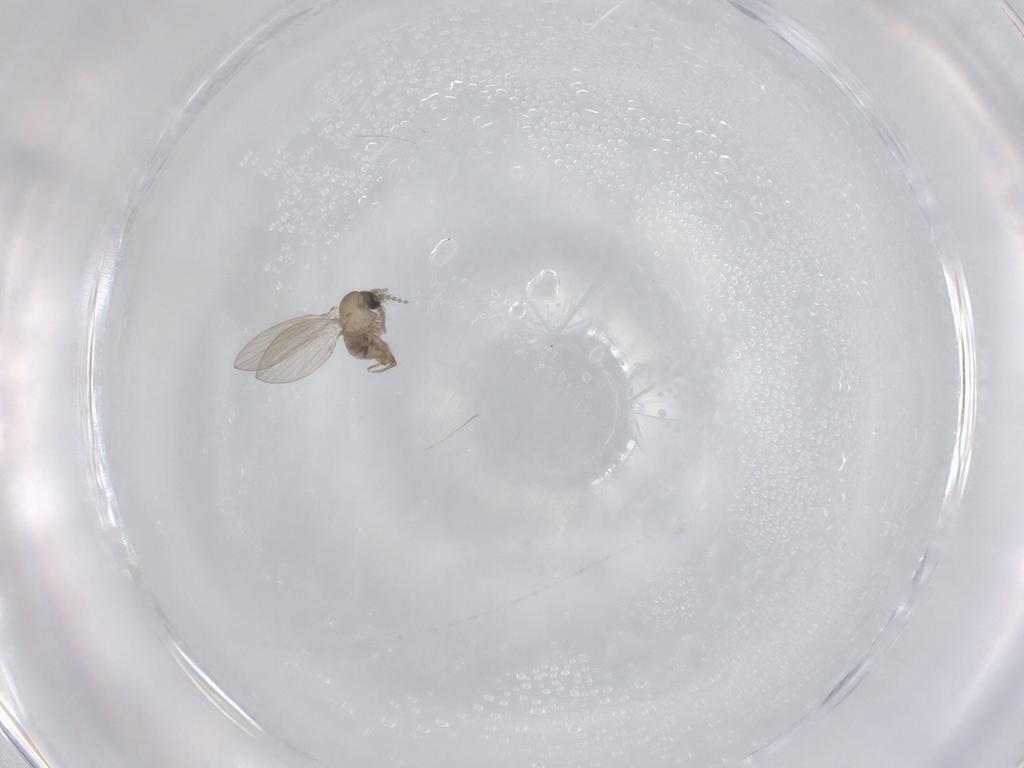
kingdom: Animalia
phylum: Arthropoda
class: Insecta
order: Diptera
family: Psychodidae
